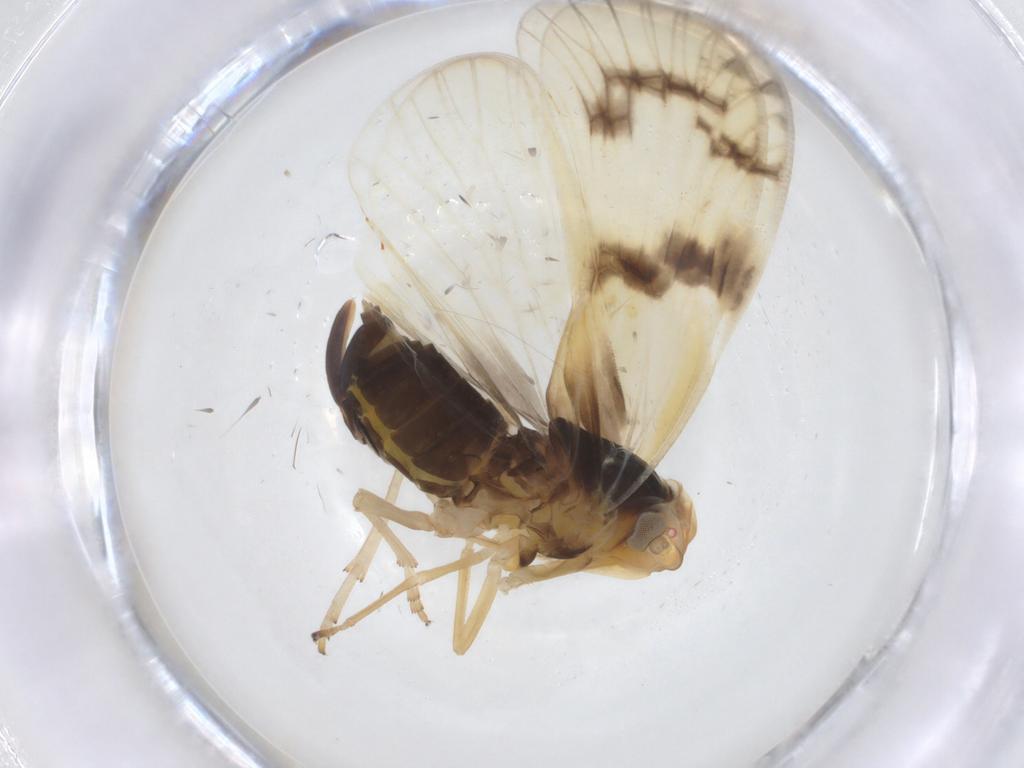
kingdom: Animalia
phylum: Arthropoda
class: Insecta
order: Hemiptera
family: Cixiidae
